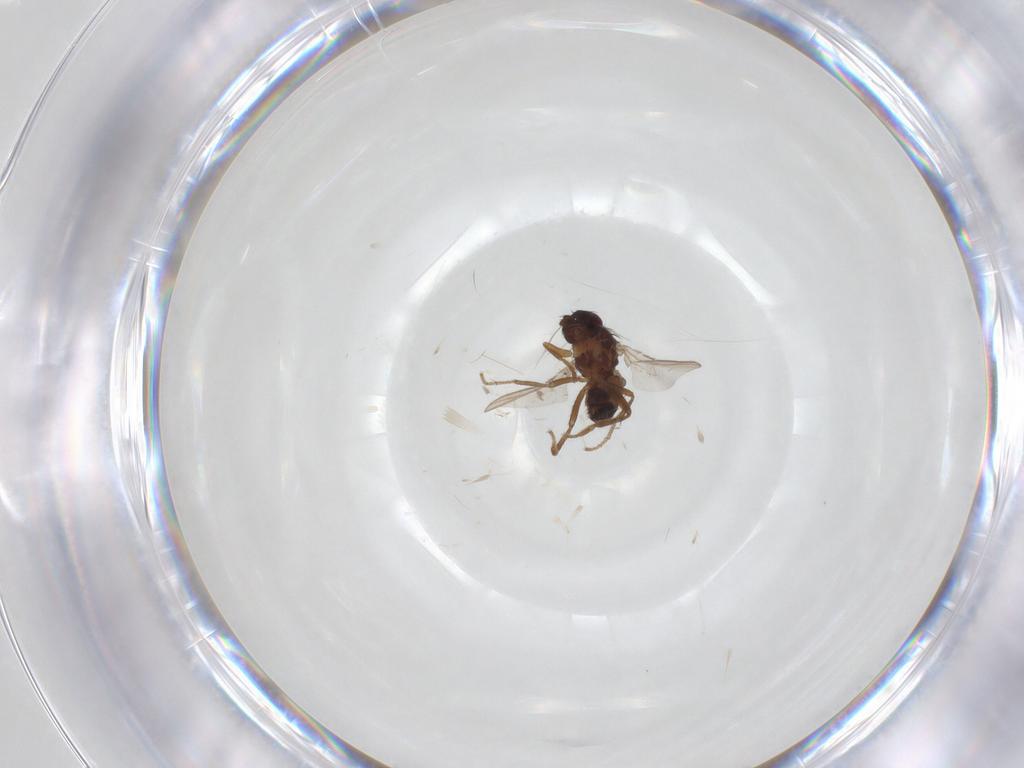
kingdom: Animalia
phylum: Arthropoda
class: Insecta
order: Diptera
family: Sphaeroceridae
